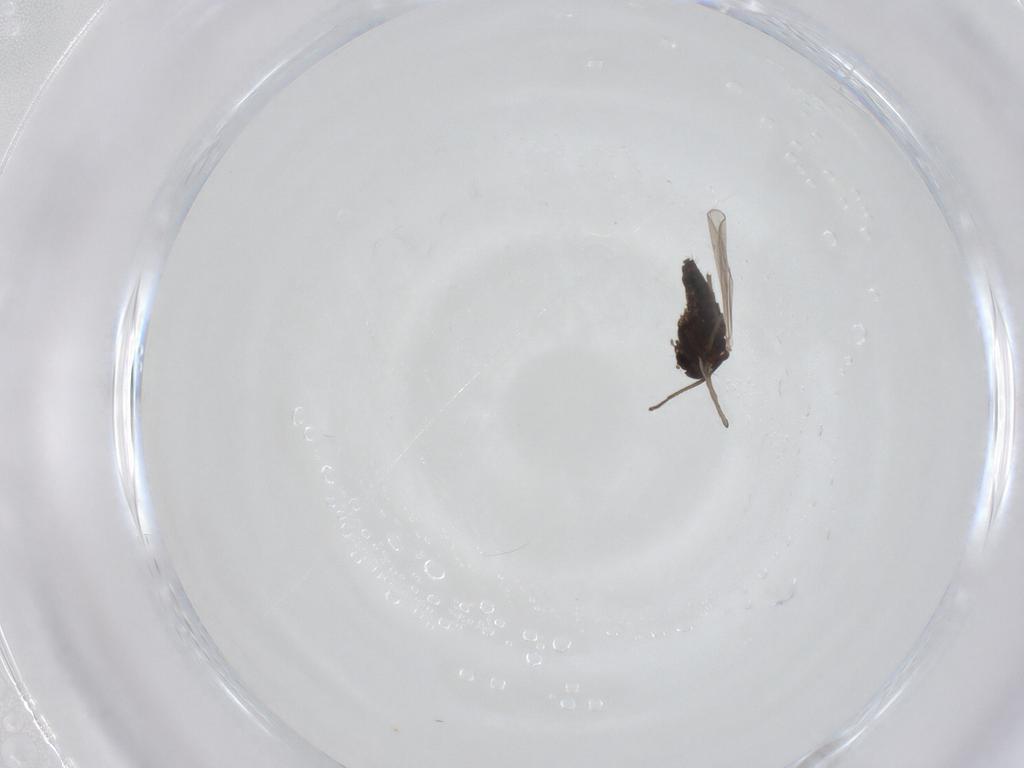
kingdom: Animalia
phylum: Arthropoda
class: Insecta
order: Diptera
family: Chironomidae
